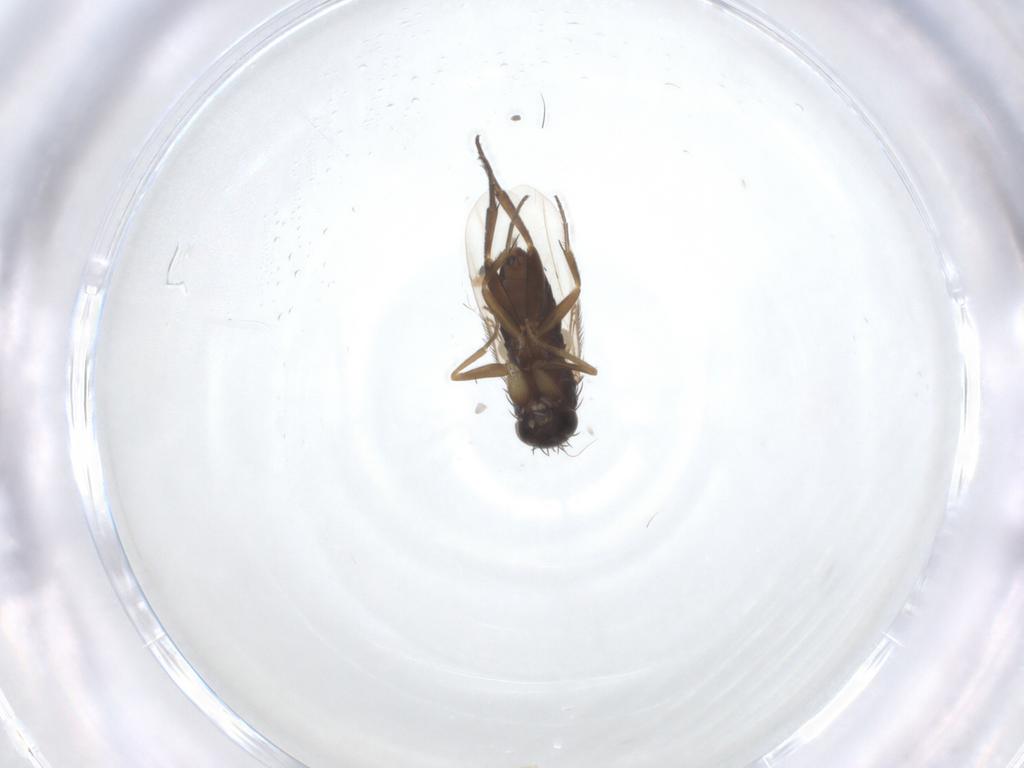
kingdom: Animalia
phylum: Arthropoda
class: Insecta
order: Diptera
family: Phoridae
